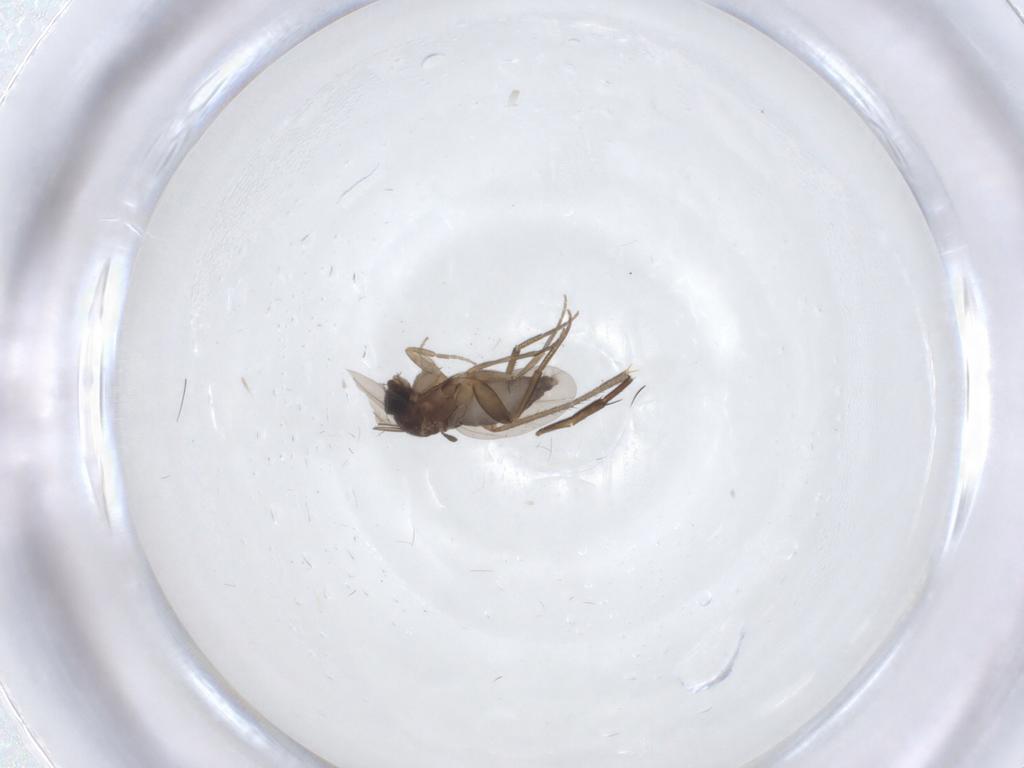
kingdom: Animalia
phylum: Arthropoda
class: Insecta
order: Diptera
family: Phoridae
